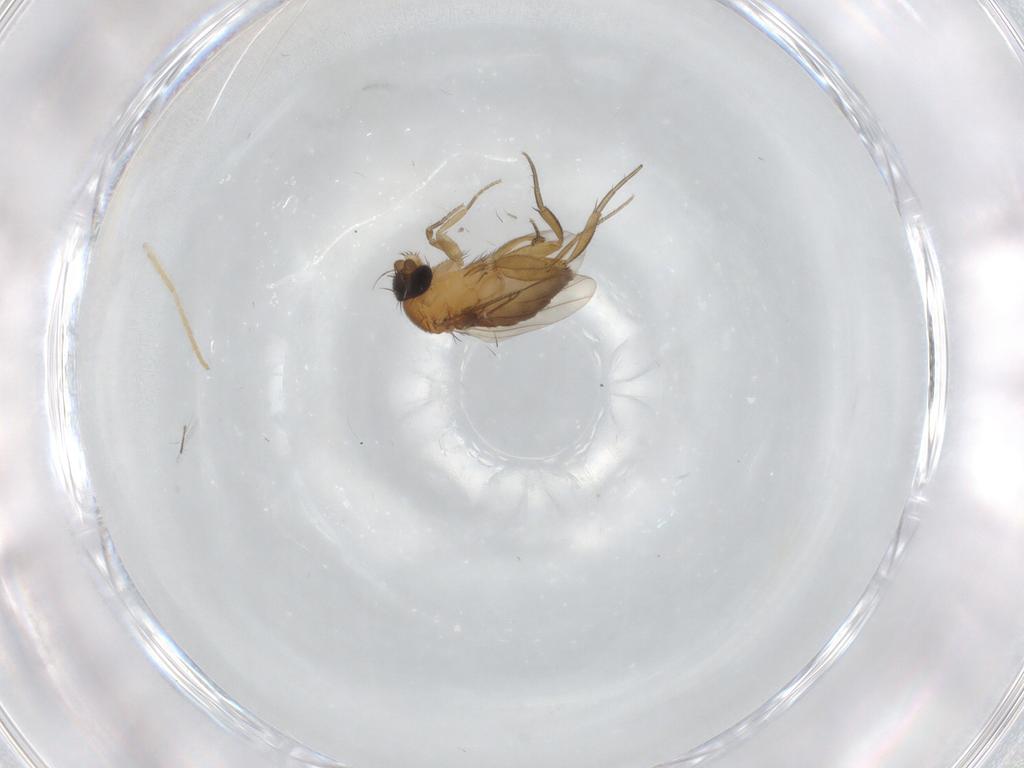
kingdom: Animalia
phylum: Arthropoda
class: Insecta
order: Diptera
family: Phoridae
